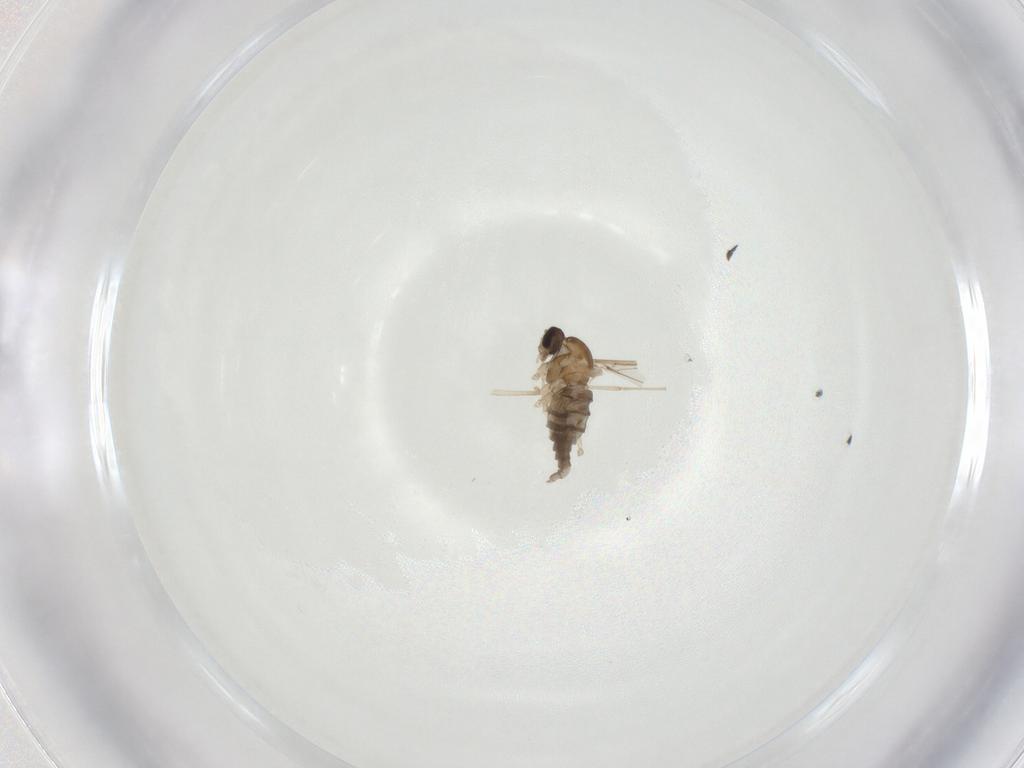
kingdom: Animalia
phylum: Arthropoda
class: Insecta
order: Diptera
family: Cecidomyiidae
